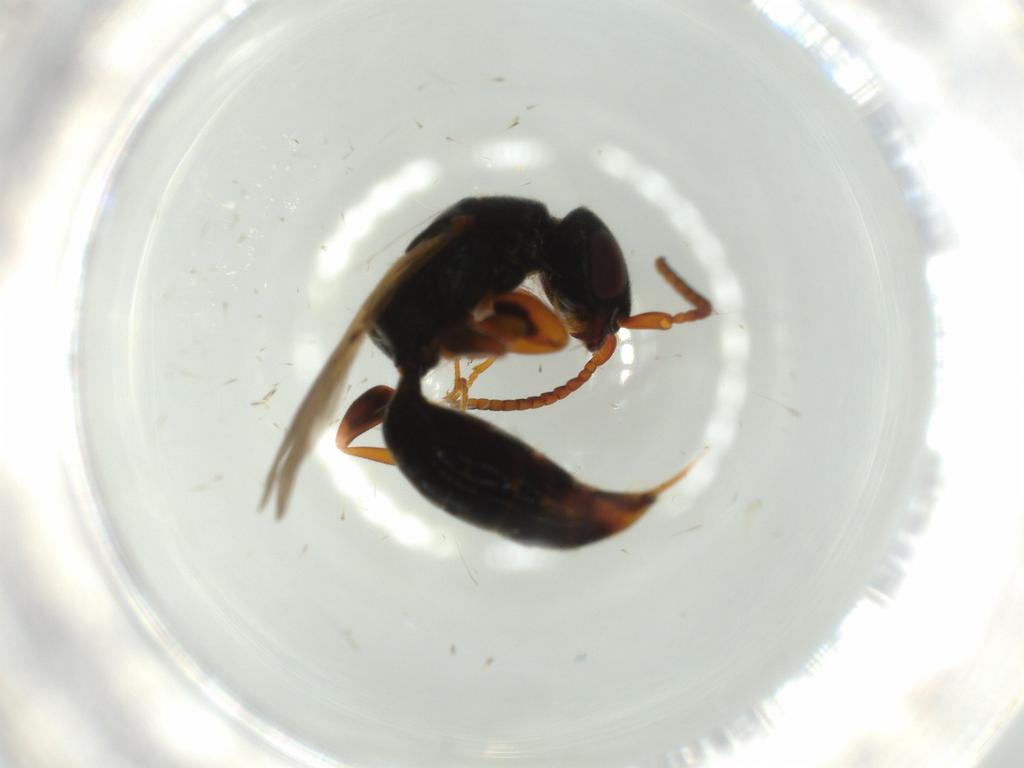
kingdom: Animalia
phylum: Arthropoda
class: Insecta
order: Hymenoptera
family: Bethylidae
